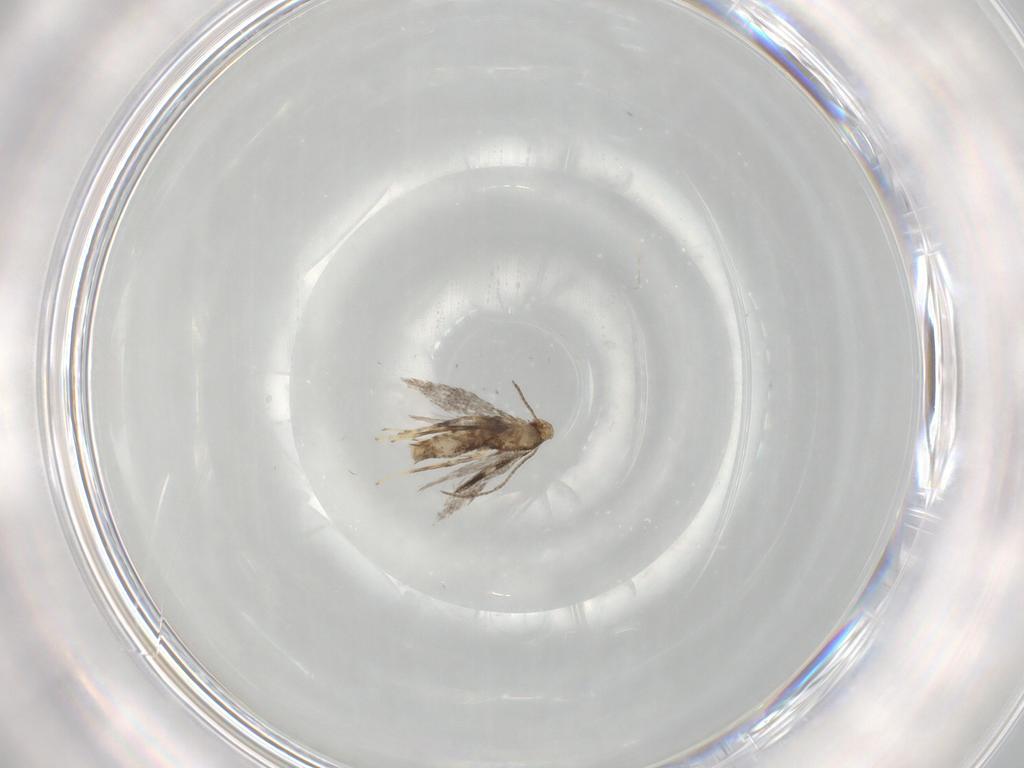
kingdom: Animalia
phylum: Arthropoda
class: Insecta
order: Lepidoptera
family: Gracillariidae
